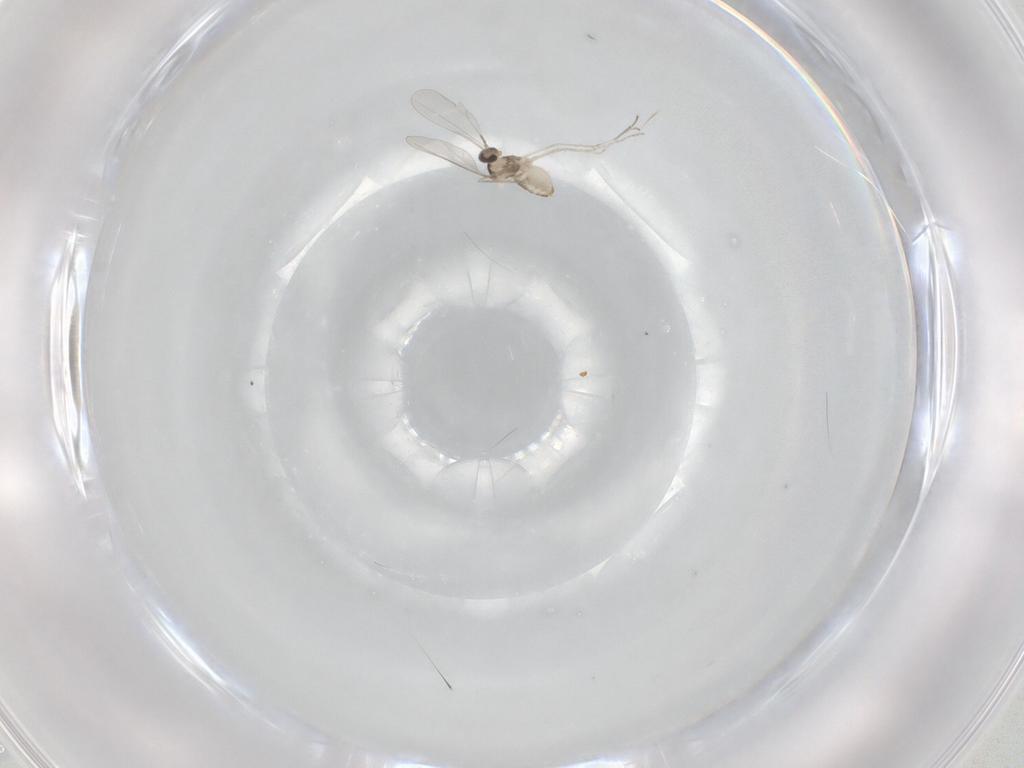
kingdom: Animalia
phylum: Arthropoda
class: Insecta
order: Diptera
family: Cecidomyiidae
